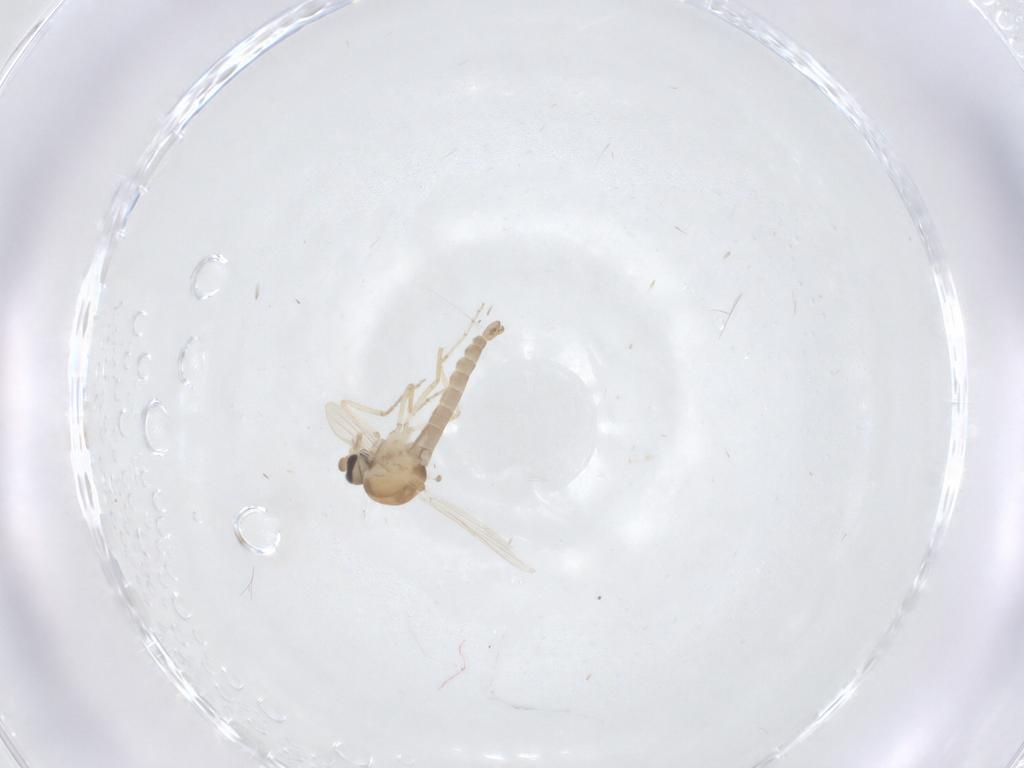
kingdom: Animalia
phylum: Arthropoda
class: Insecta
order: Diptera
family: Ceratopogonidae
